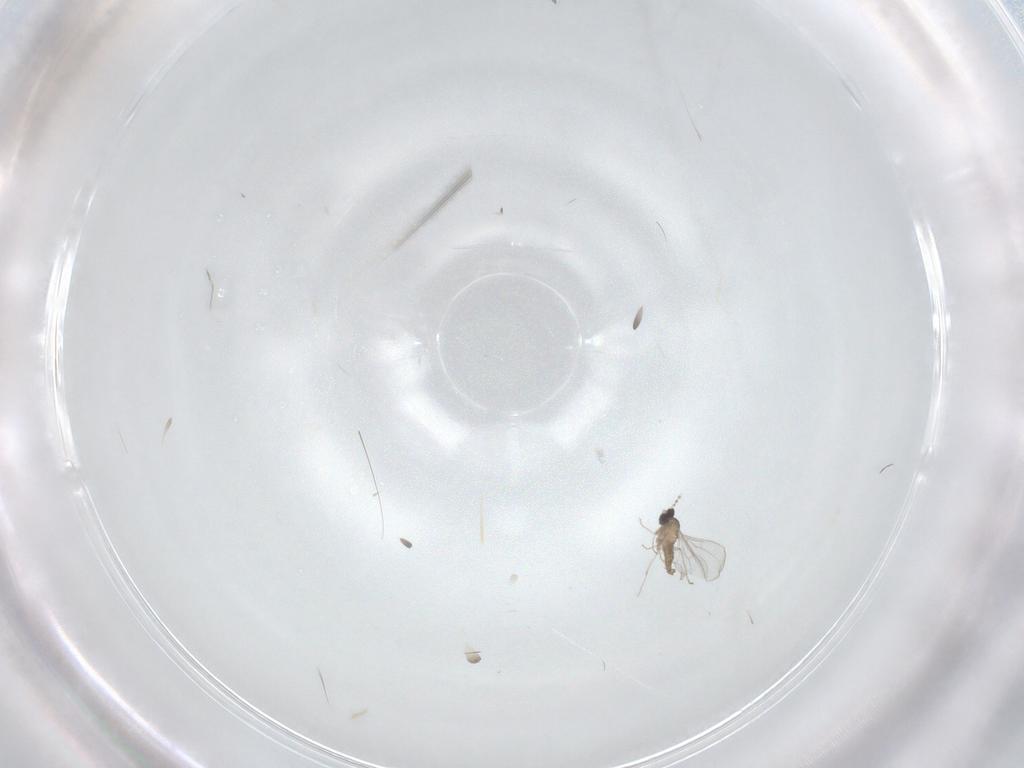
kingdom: Animalia
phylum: Arthropoda
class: Insecta
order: Diptera
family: Cecidomyiidae
